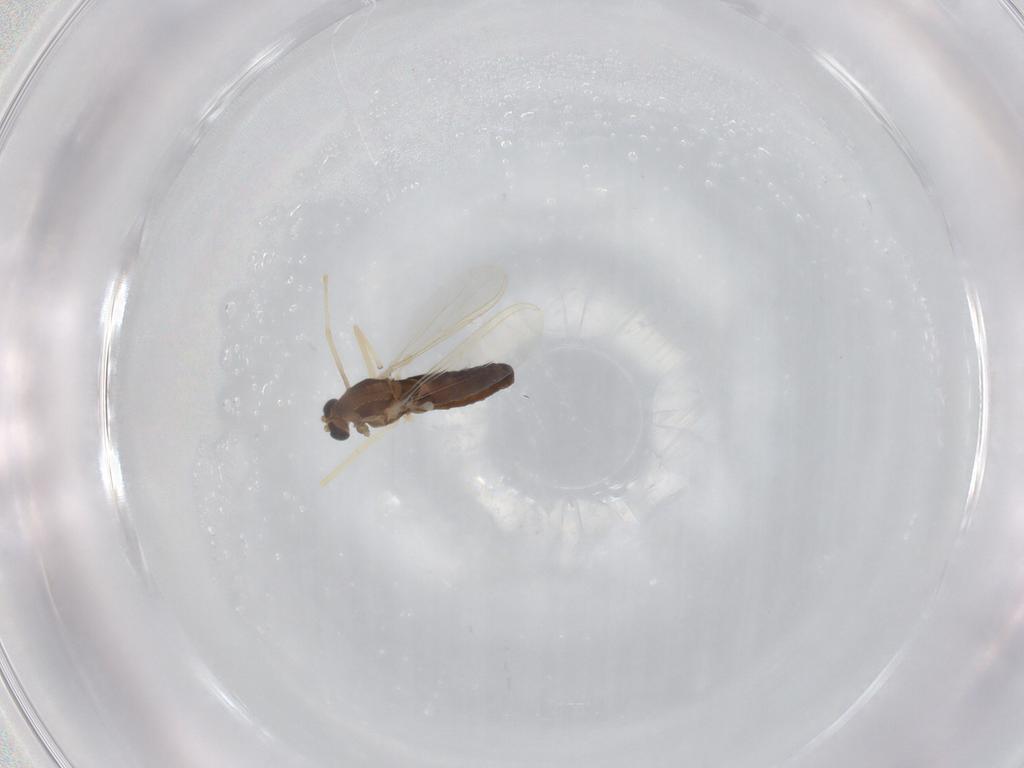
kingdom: Animalia
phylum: Arthropoda
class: Insecta
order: Diptera
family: Chironomidae
